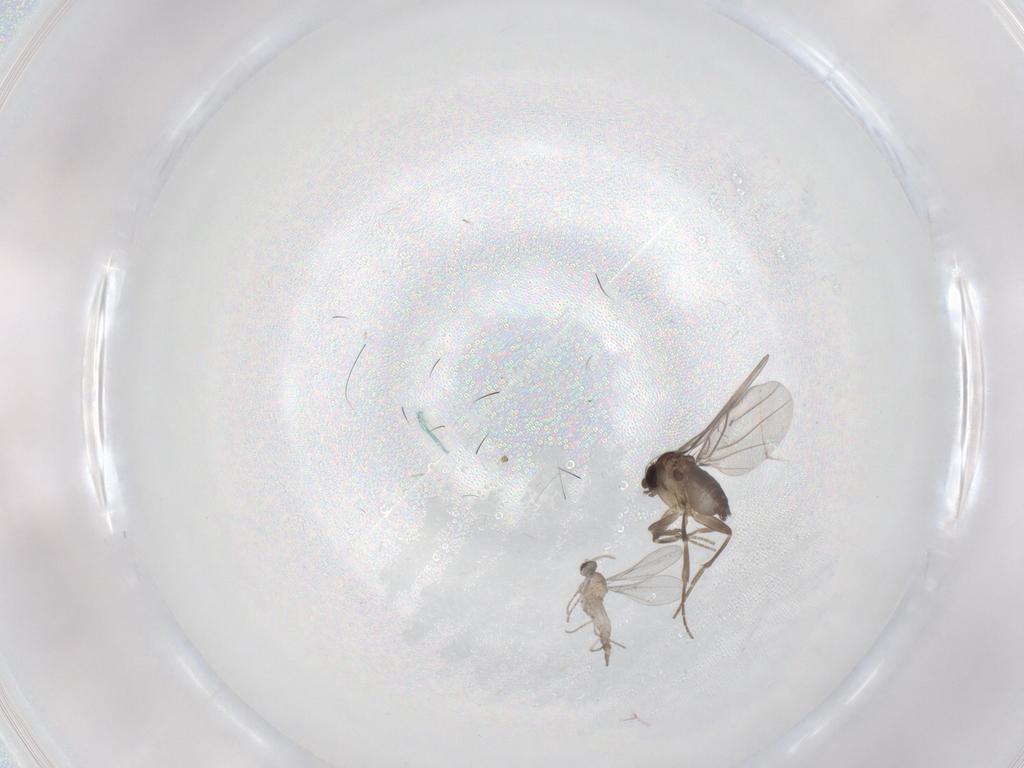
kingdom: Animalia
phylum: Arthropoda
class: Insecta
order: Diptera
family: Cecidomyiidae
